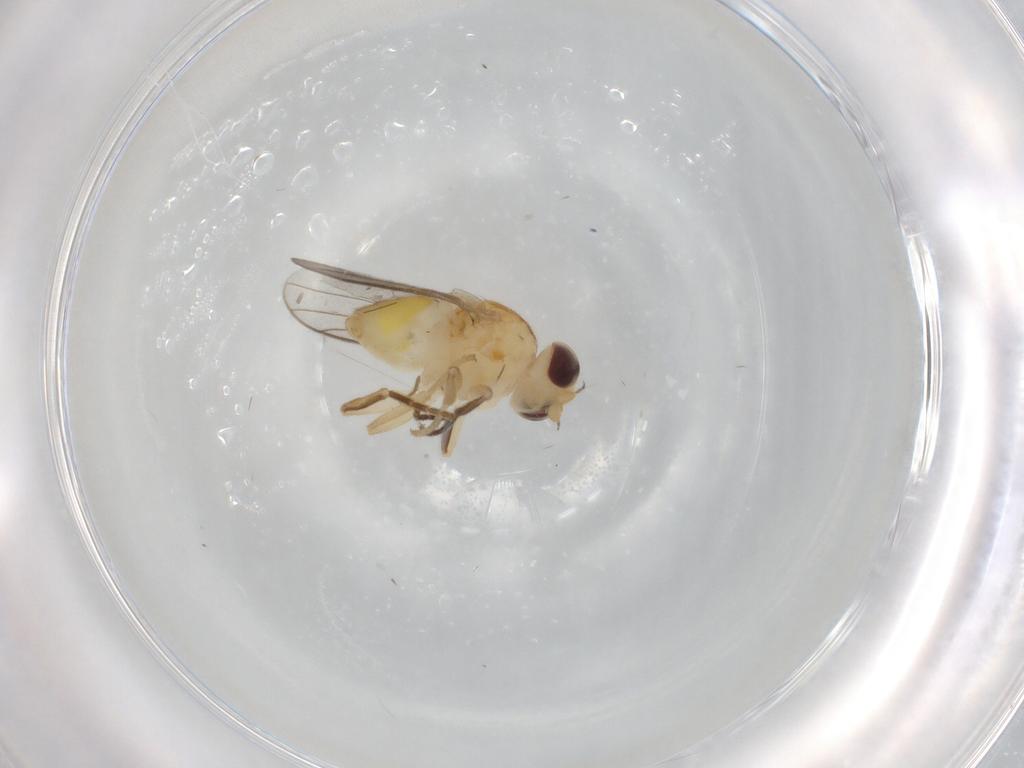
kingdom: Animalia
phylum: Arthropoda
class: Insecta
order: Diptera
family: Chloropidae
